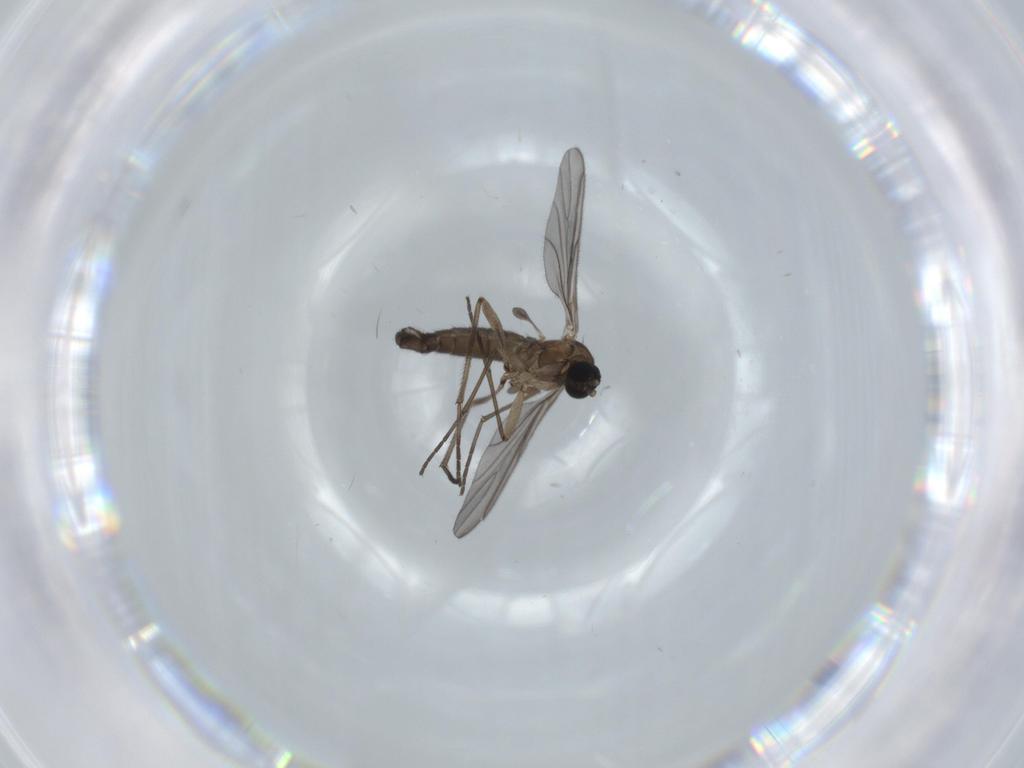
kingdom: Animalia
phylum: Arthropoda
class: Insecta
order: Diptera
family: Sciaridae
